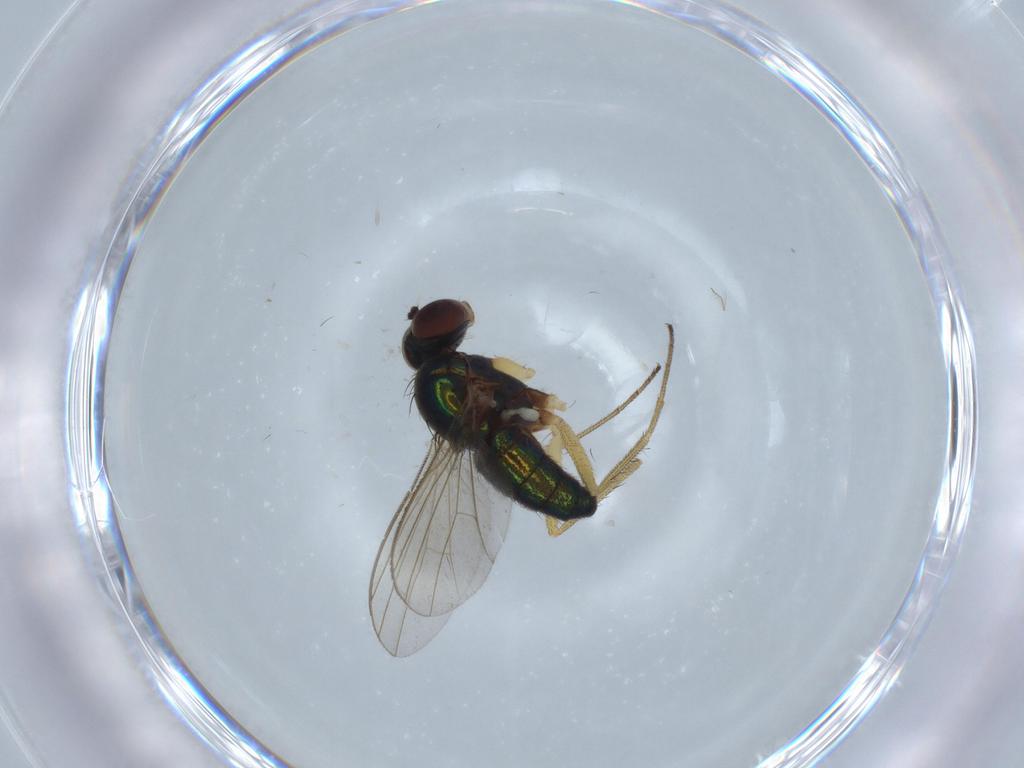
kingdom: Animalia
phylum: Arthropoda
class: Insecta
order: Diptera
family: Dolichopodidae
